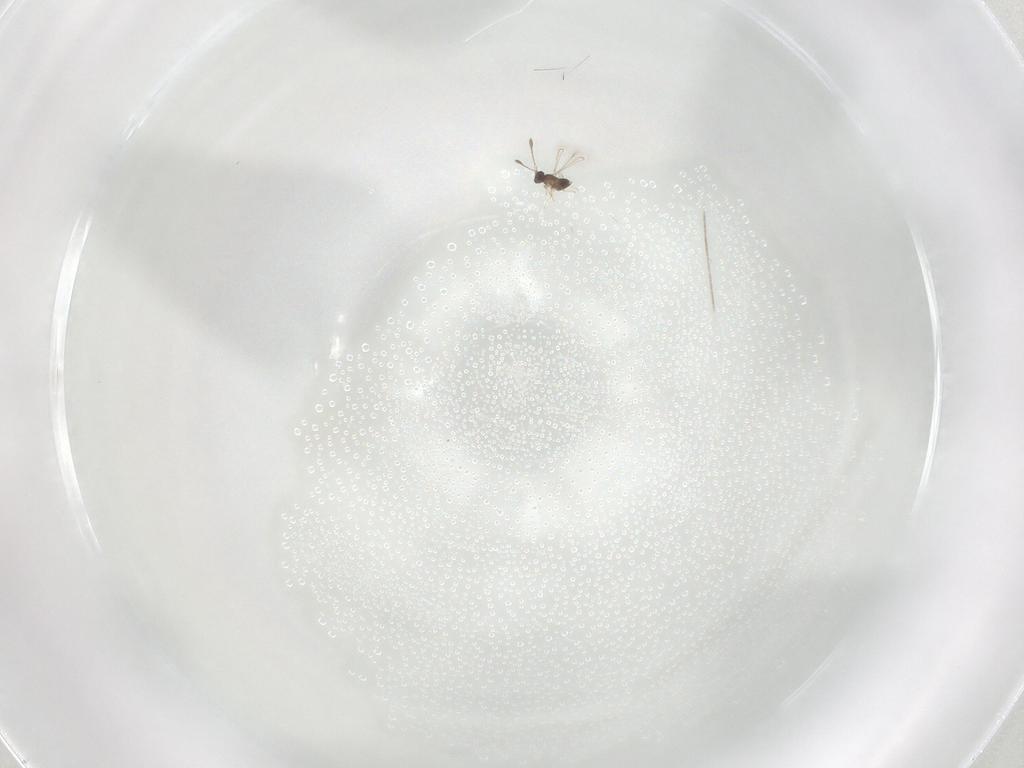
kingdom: Animalia
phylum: Arthropoda
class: Insecta
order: Hymenoptera
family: Mymaridae
